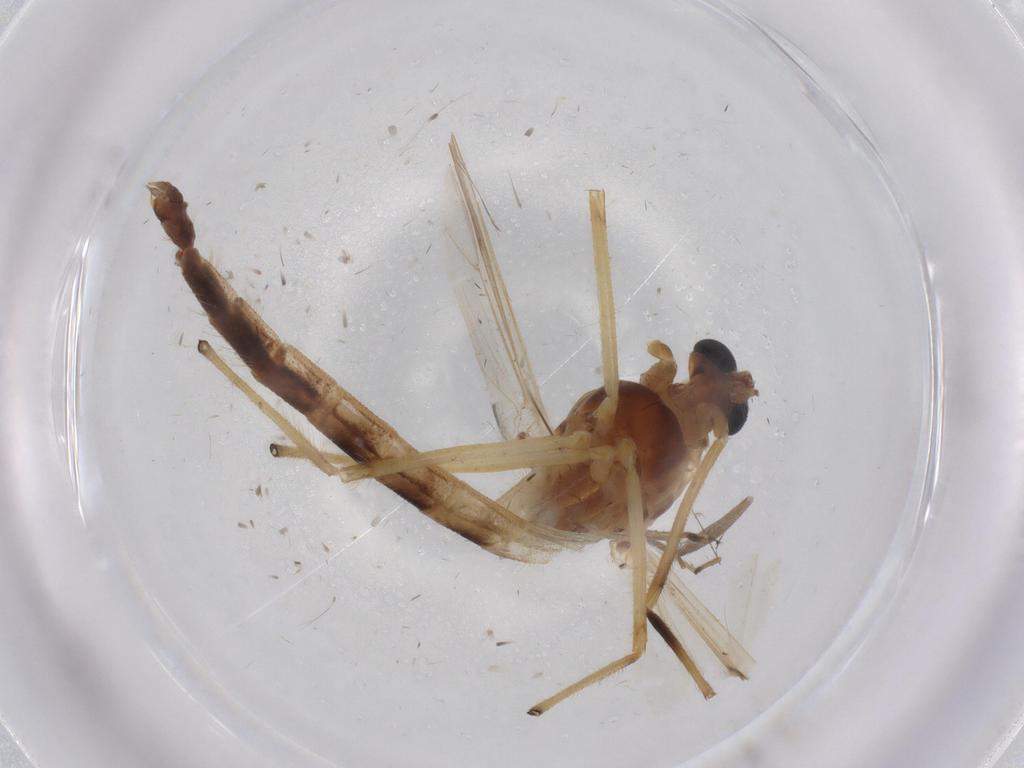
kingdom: Animalia
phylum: Arthropoda
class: Insecta
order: Diptera
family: Chironomidae
